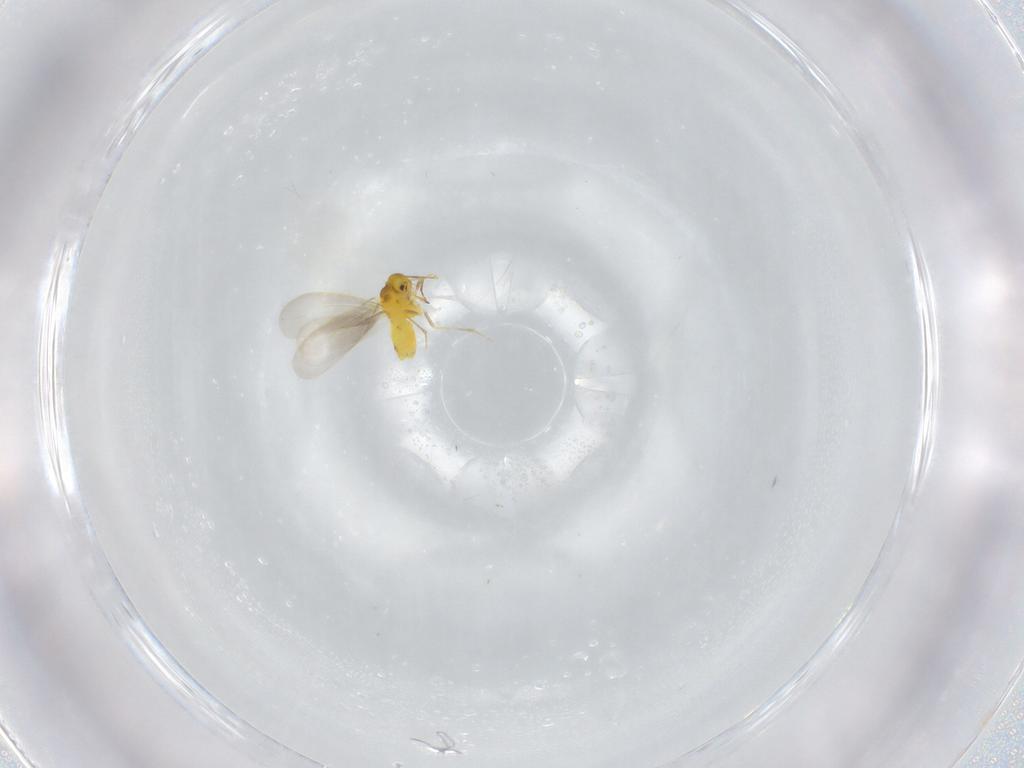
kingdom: Animalia
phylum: Arthropoda
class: Insecta
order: Hemiptera
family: Aleyrodidae
